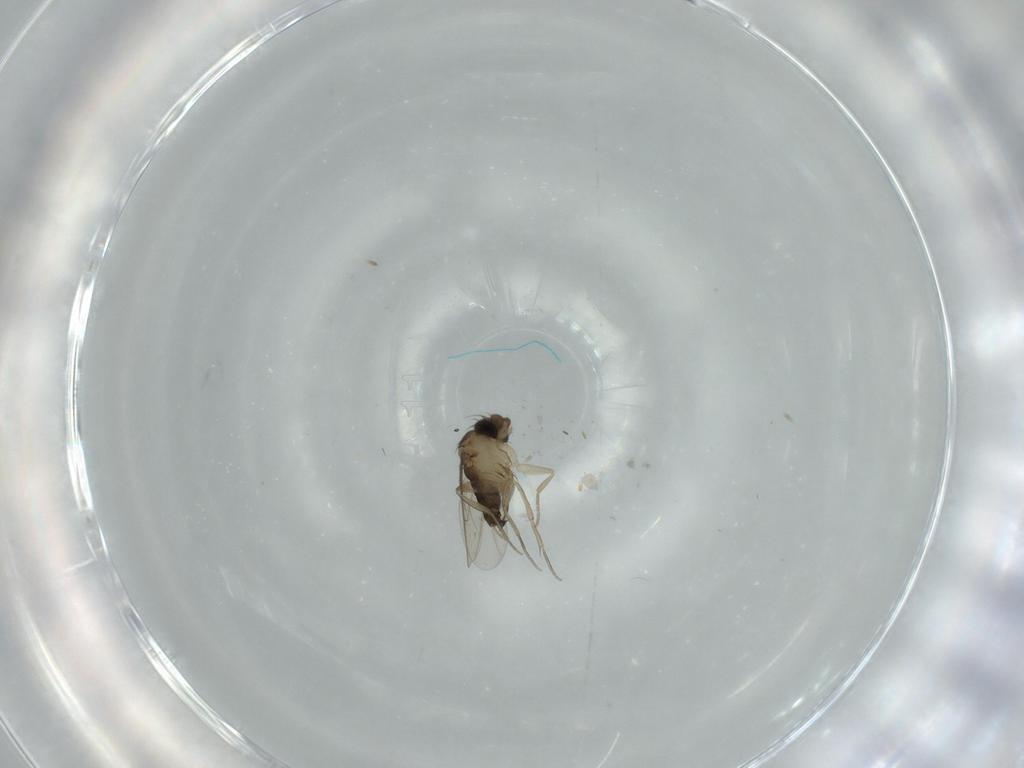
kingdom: Animalia
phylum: Arthropoda
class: Insecta
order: Diptera
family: Phoridae
